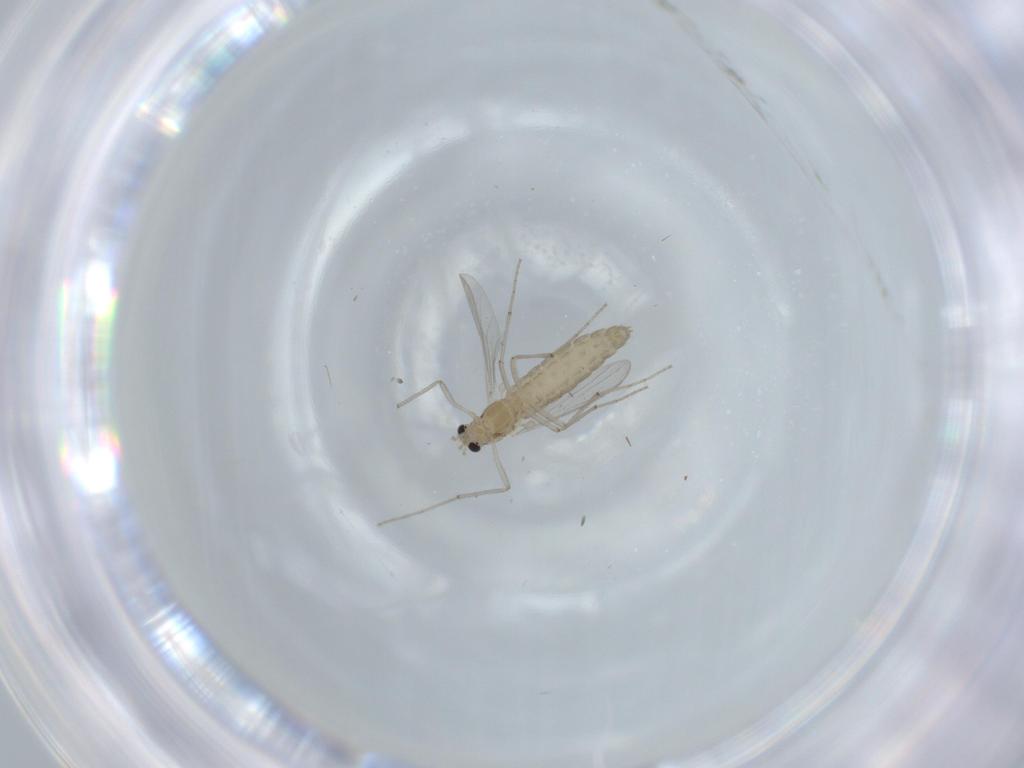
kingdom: Animalia
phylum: Arthropoda
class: Insecta
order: Diptera
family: Chironomidae
